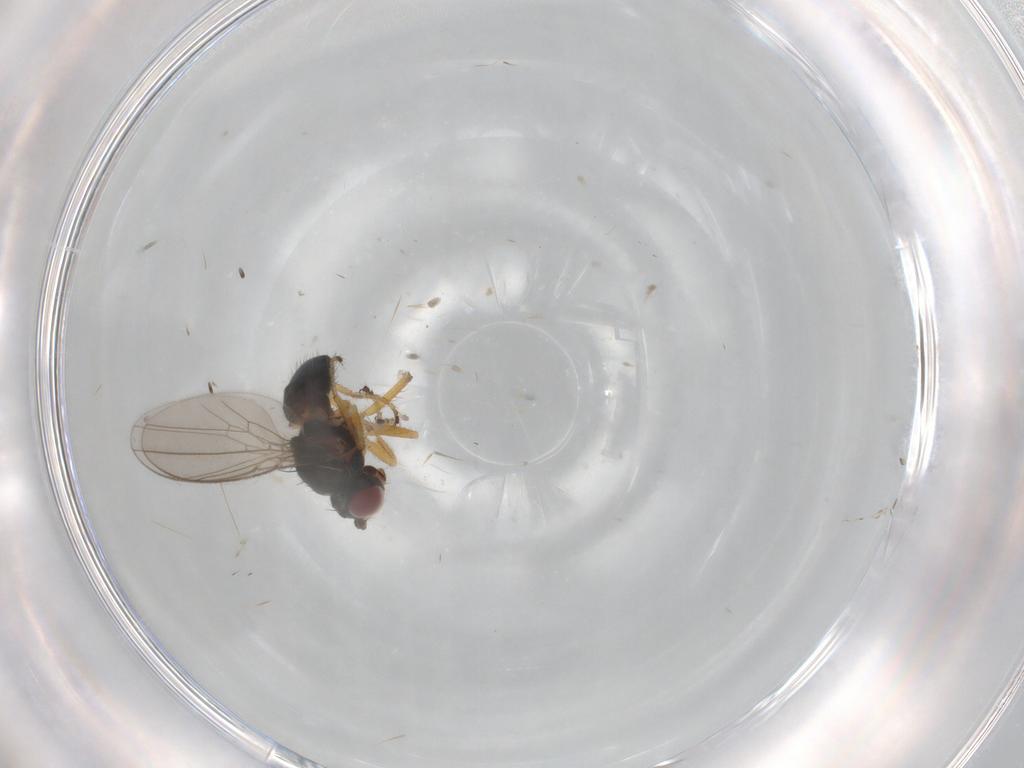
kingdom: Animalia
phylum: Arthropoda
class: Insecta
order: Diptera
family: Ephydridae
